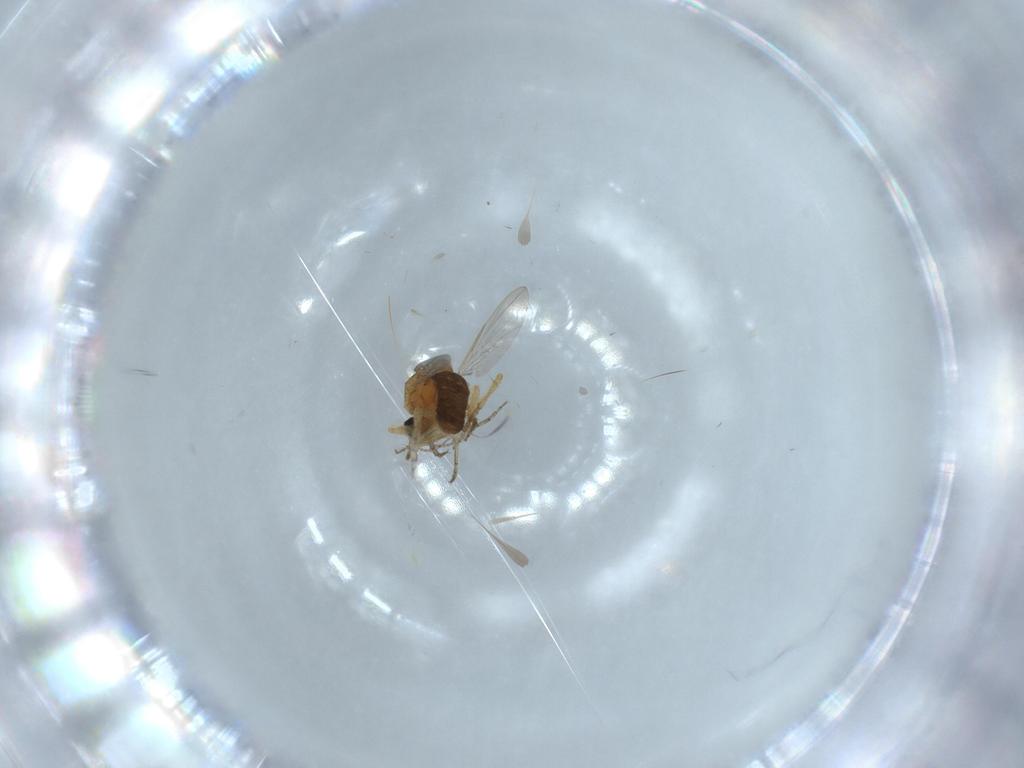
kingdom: Animalia
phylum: Arthropoda
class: Insecta
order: Diptera
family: Ceratopogonidae
